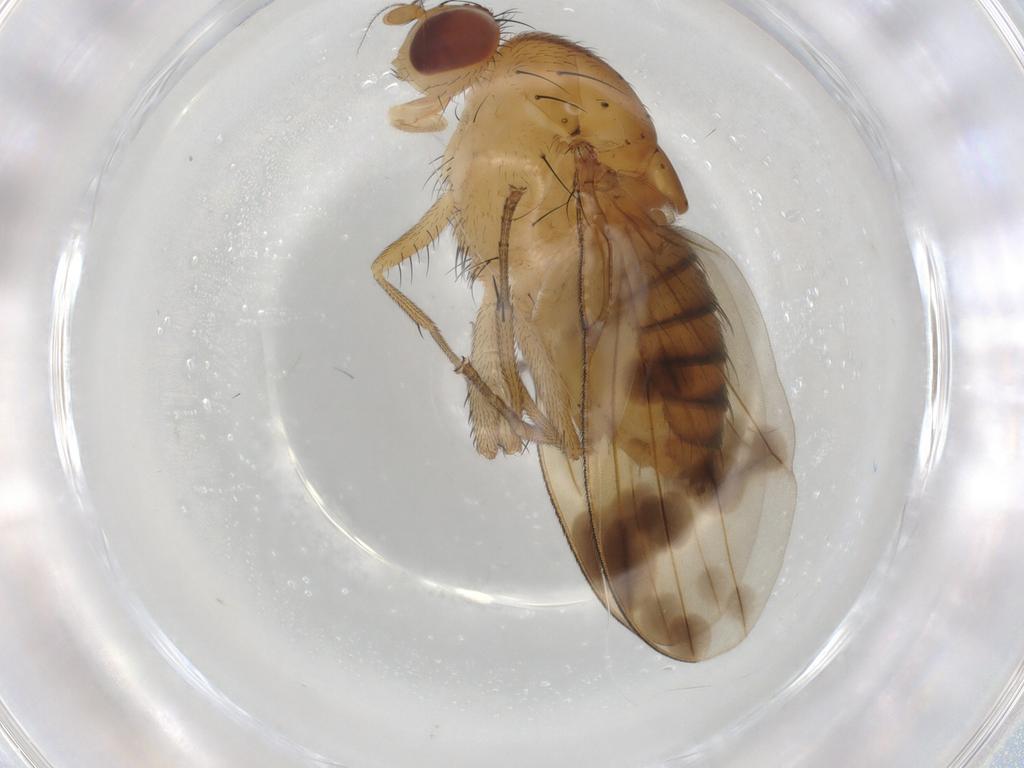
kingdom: Animalia
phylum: Arthropoda
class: Insecta
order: Diptera
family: Lauxaniidae
